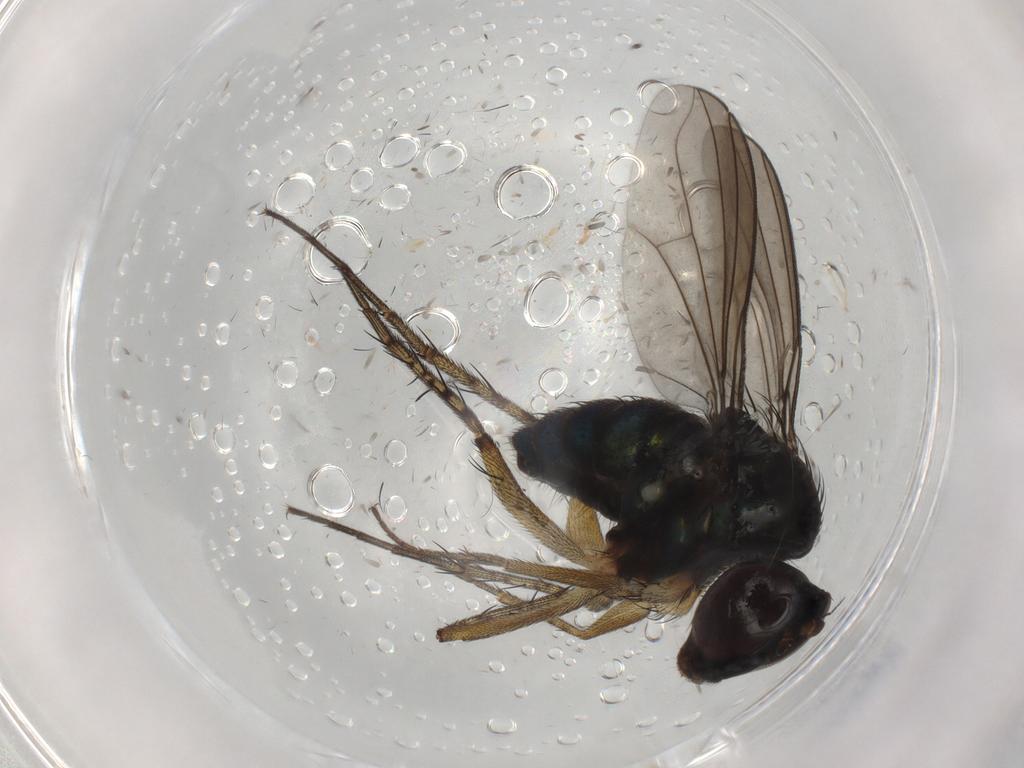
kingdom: Animalia
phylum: Arthropoda
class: Insecta
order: Diptera
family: Dolichopodidae
